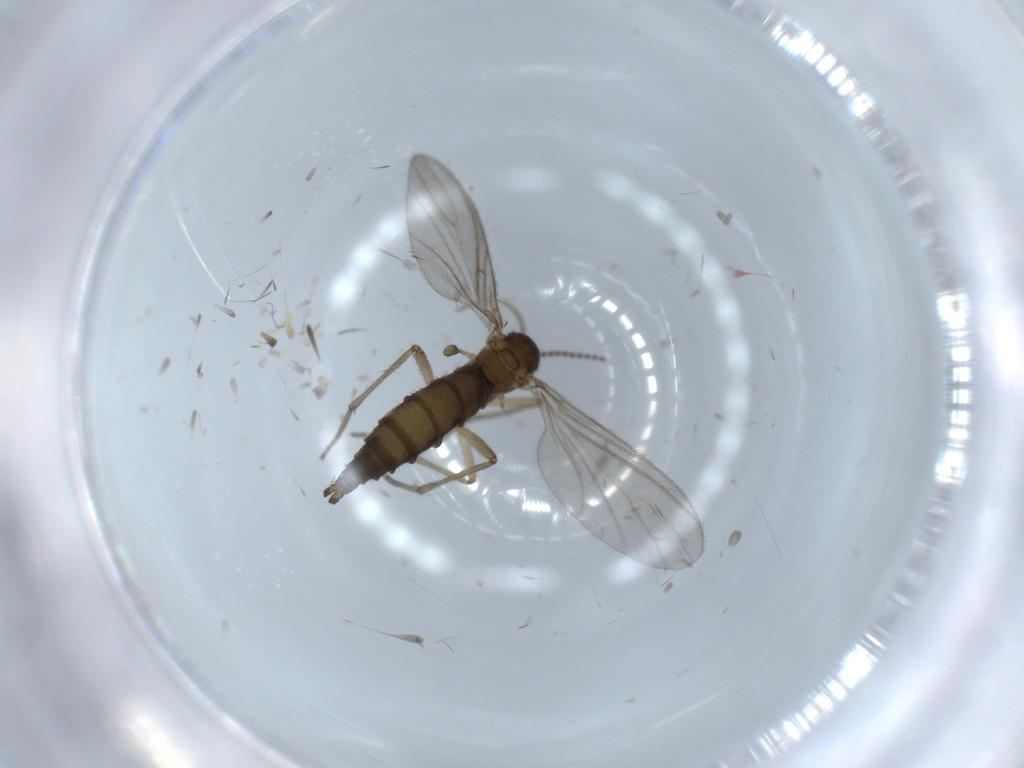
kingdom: Animalia
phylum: Arthropoda
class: Insecta
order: Diptera
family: Sciaridae
